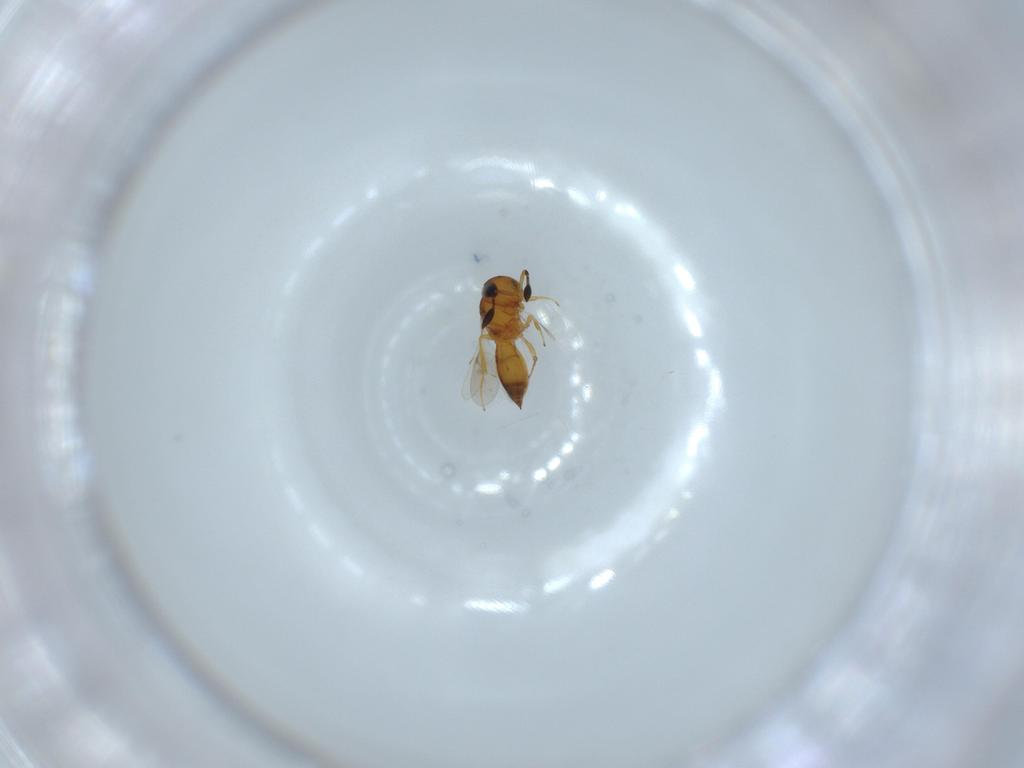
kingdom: Animalia
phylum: Arthropoda
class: Insecta
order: Hymenoptera
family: Scelionidae
